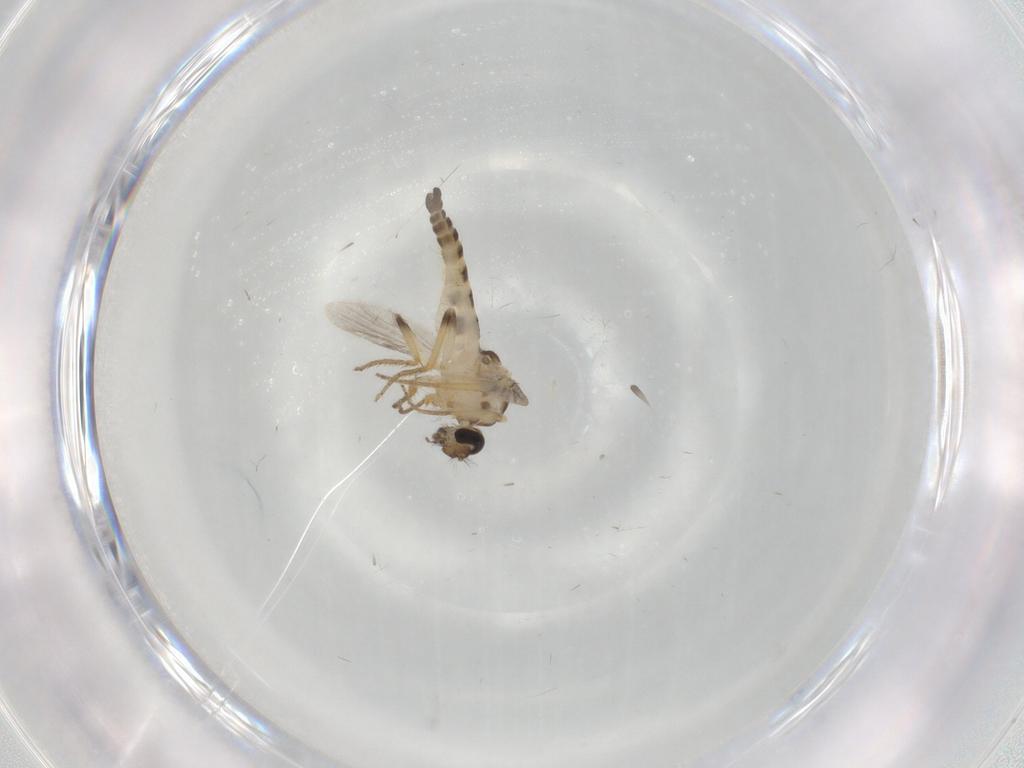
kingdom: Animalia
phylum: Arthropoda
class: Insecta
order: Diptera
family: Ceratopogonidae
